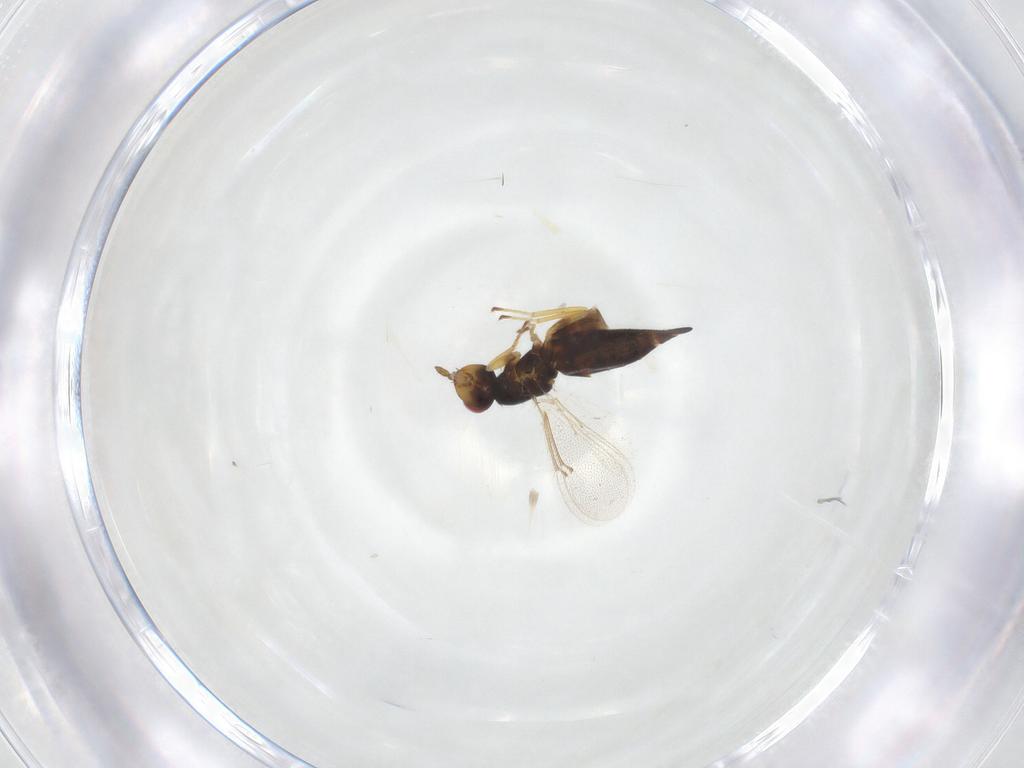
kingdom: Animalia
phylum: Arthropoda
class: Insecta
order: Hymenoptera
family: Eulophidae
